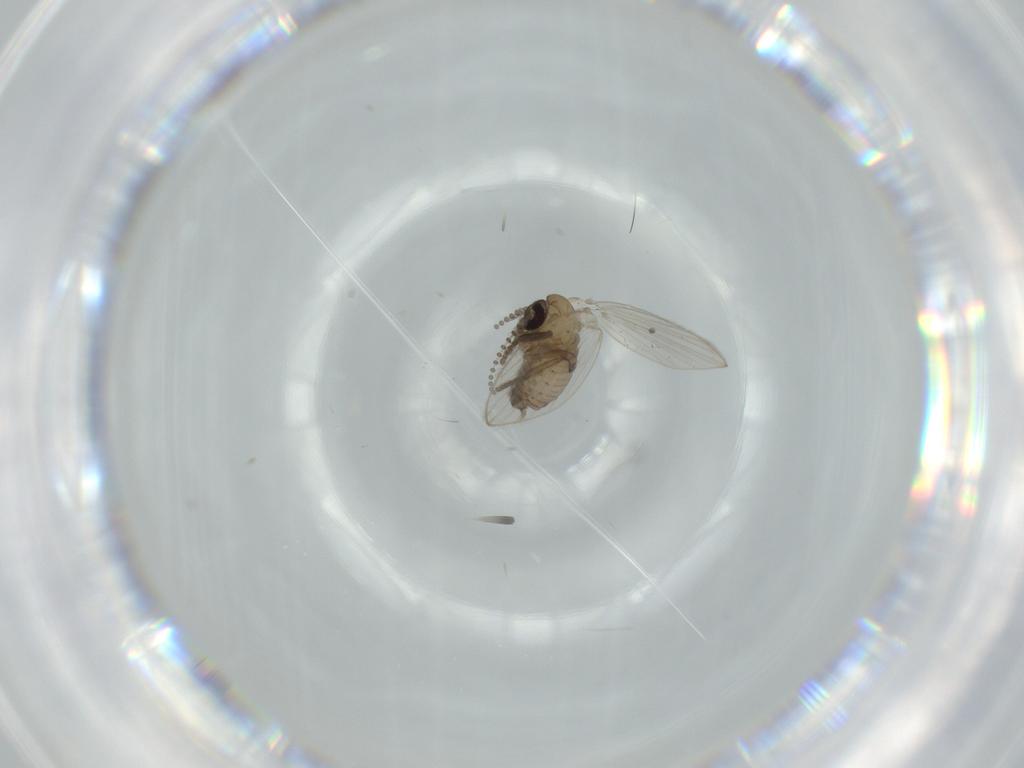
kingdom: Animalia
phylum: Arthropoda
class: Insecta
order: Diptera
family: Psychodidae
